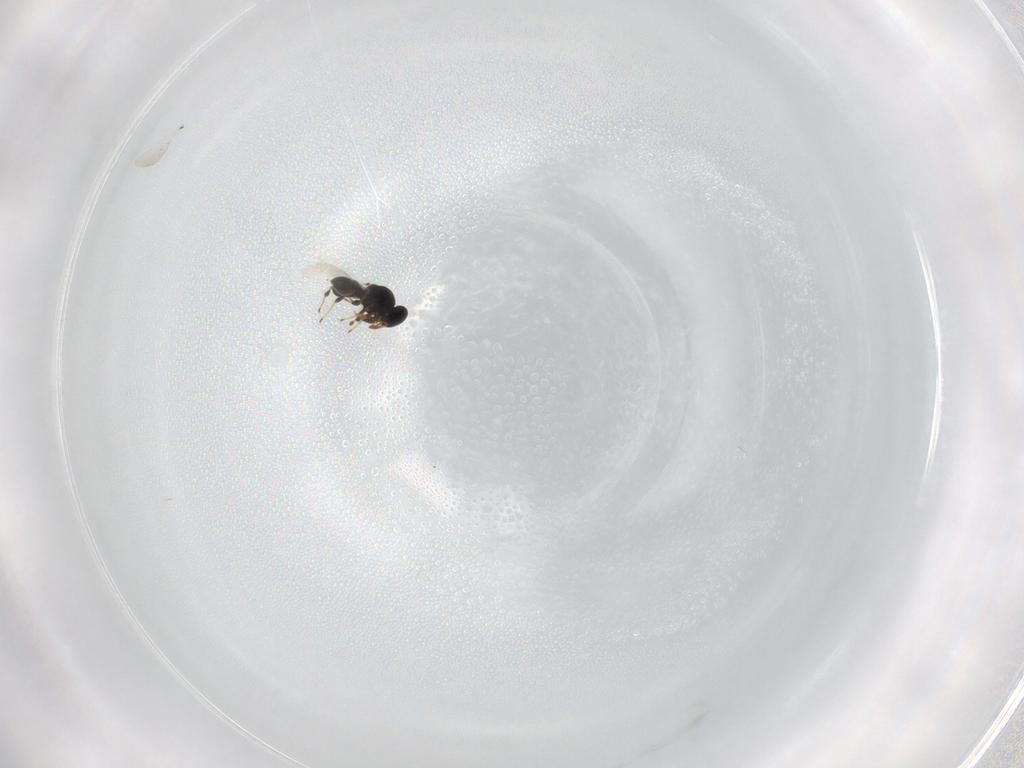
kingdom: Animalia
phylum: Arthropoda
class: Insecta
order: Hymenoptera
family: Platygastridae
